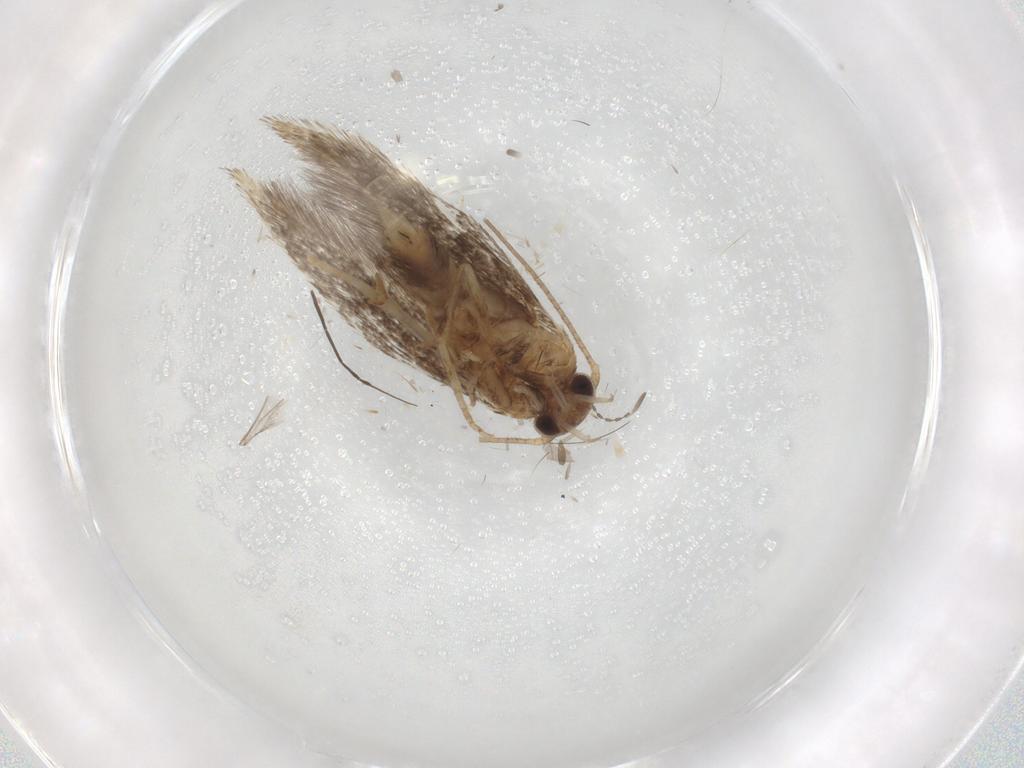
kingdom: Animalia
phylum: Arthropoda
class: Insecta
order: Lepidoptera
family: Elachistidae
